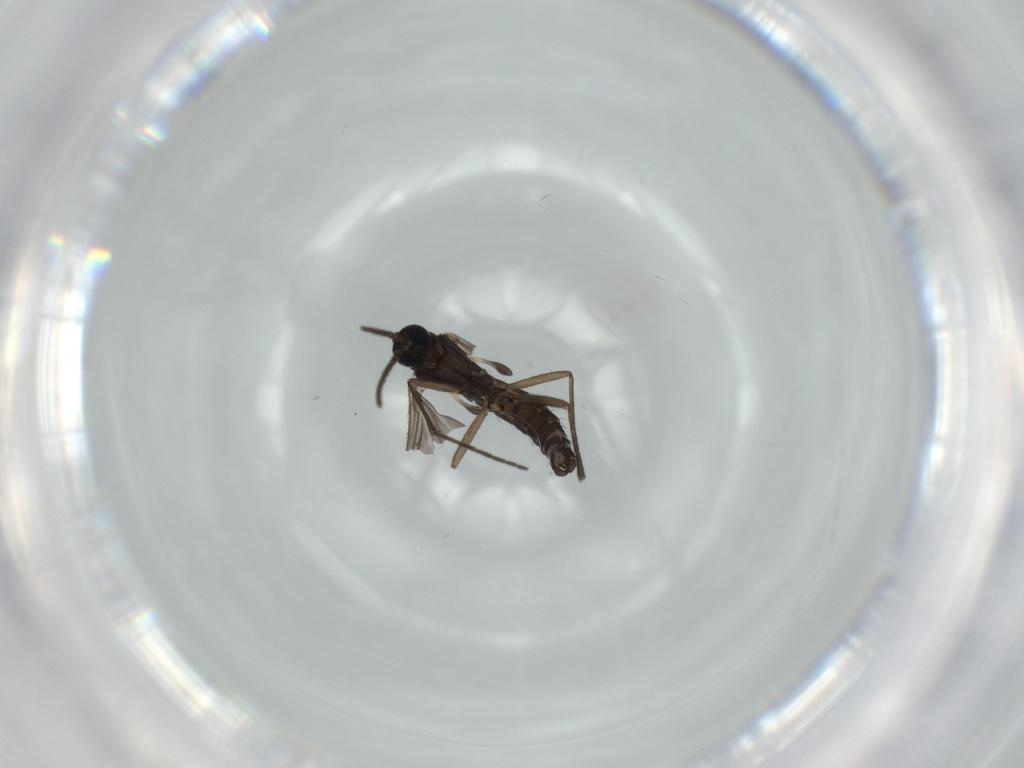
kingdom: Animalia
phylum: Arthropoda
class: Insecta
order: Diptera
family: Sciaridae
